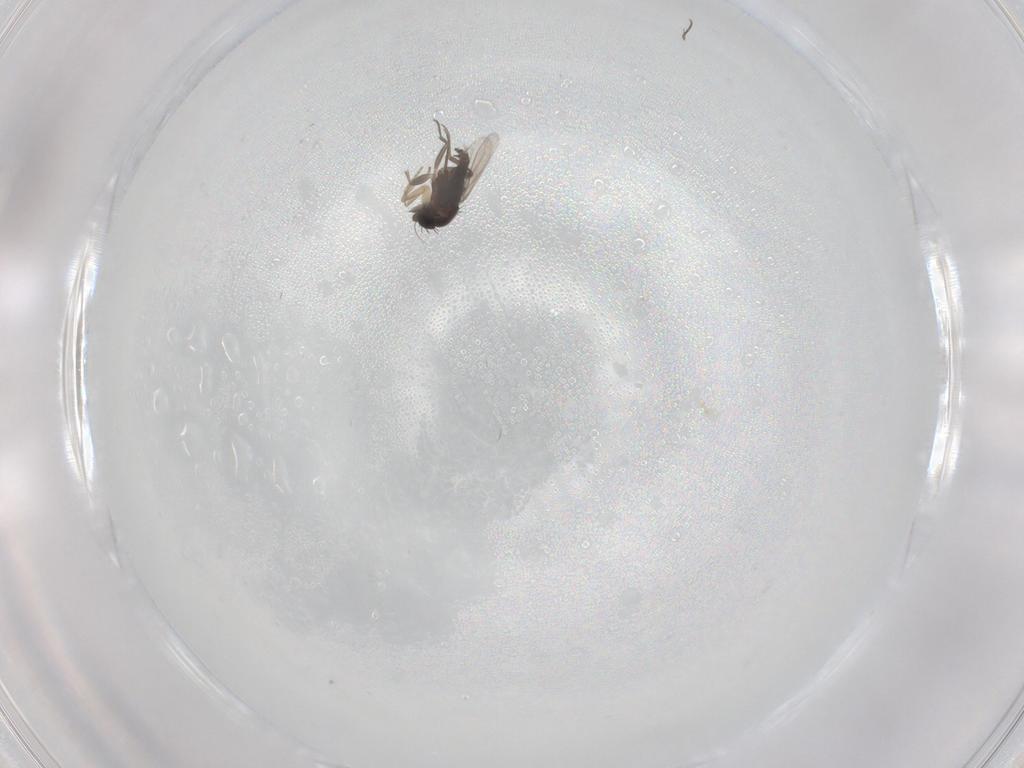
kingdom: Animalia
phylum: Arthropoda
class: Insecta
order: Diptera
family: Phoridae
